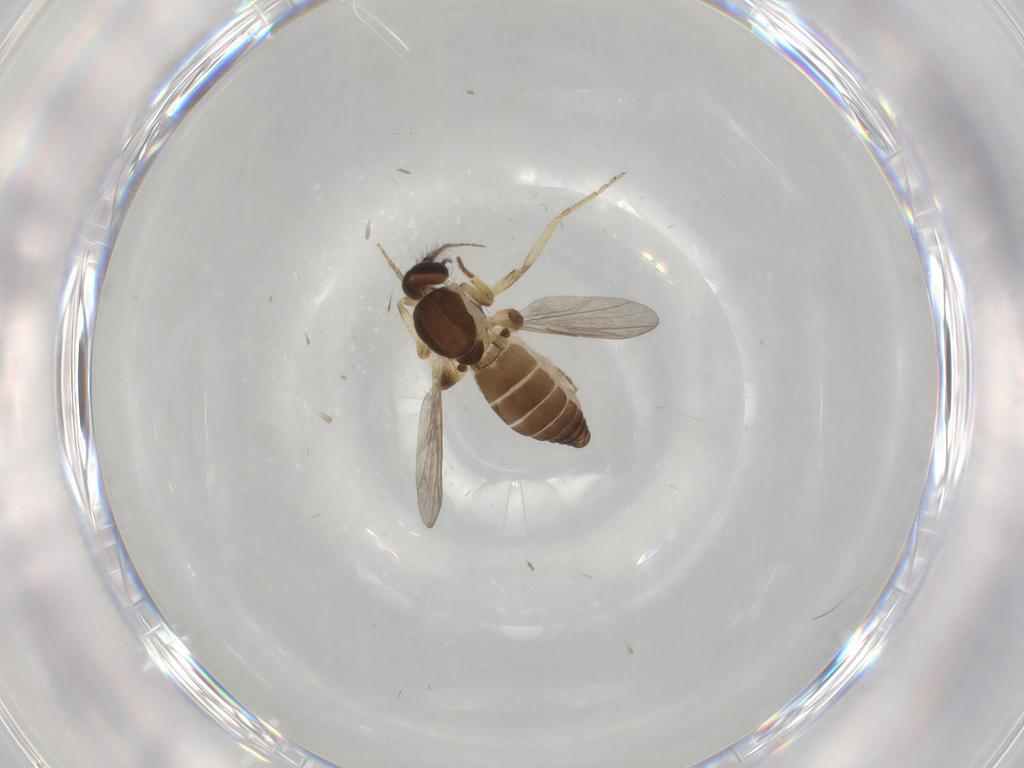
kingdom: Animalia
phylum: Arthropoda
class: Insecta
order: Diptera
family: Ceratopogonidae
